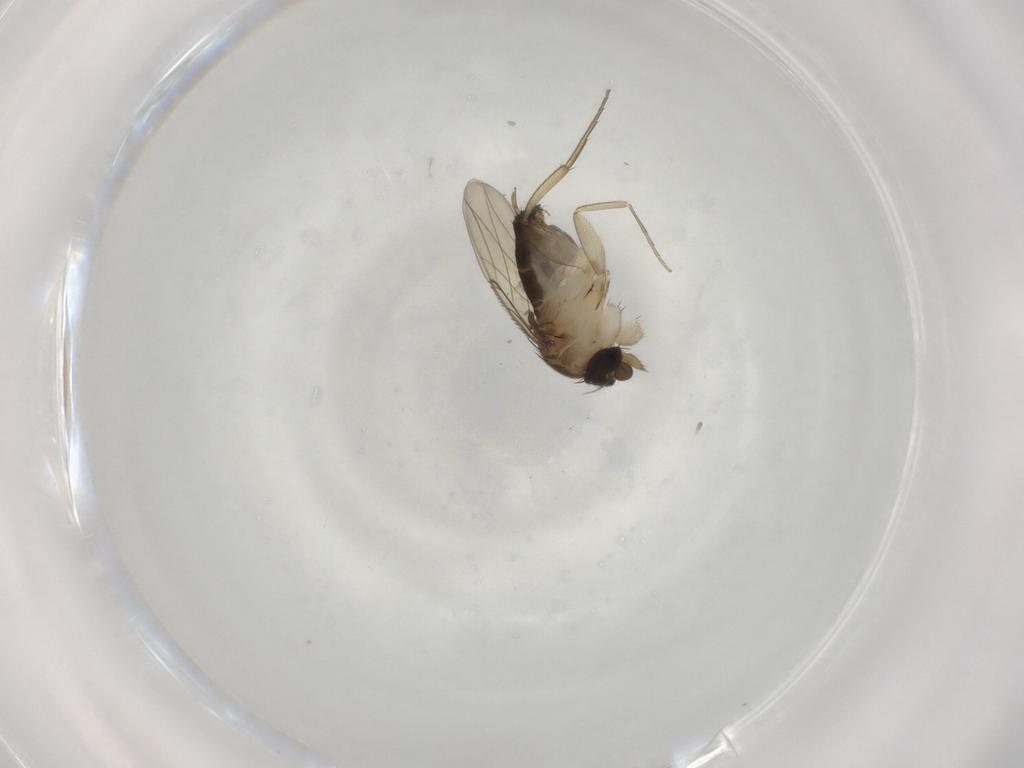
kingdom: Animalia
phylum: Arthropoda
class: Insecta
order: Diptera
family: Phoridae
